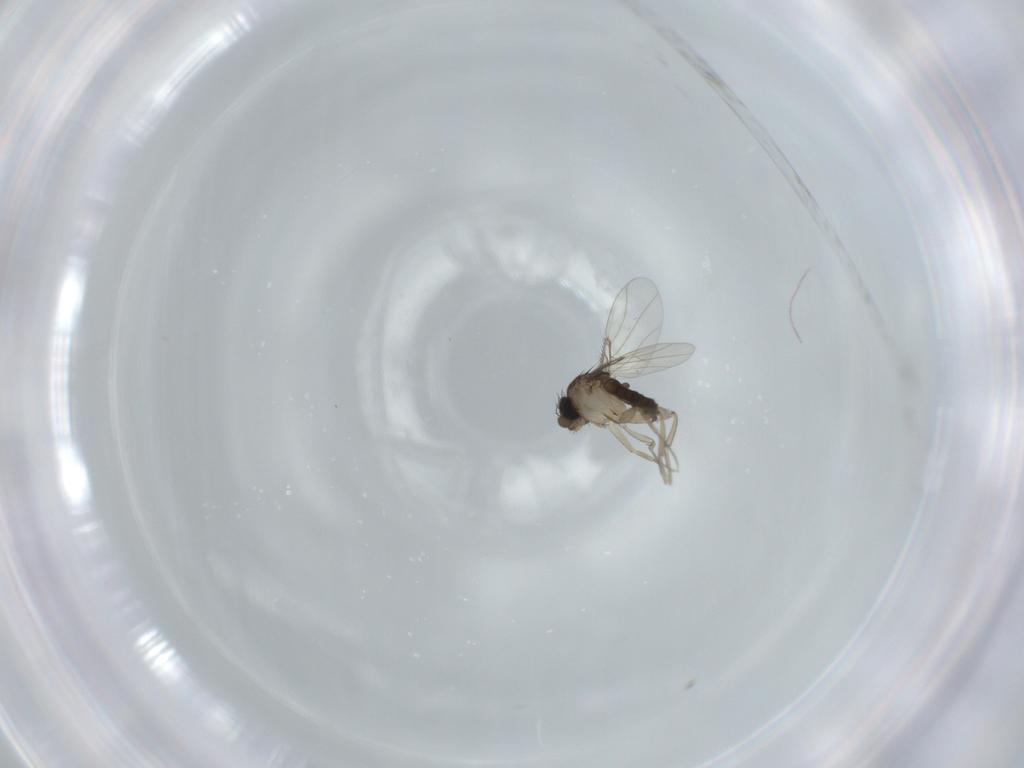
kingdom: Animalia
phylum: Arthropoda
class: Insecta
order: Diptera
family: Phoridae
